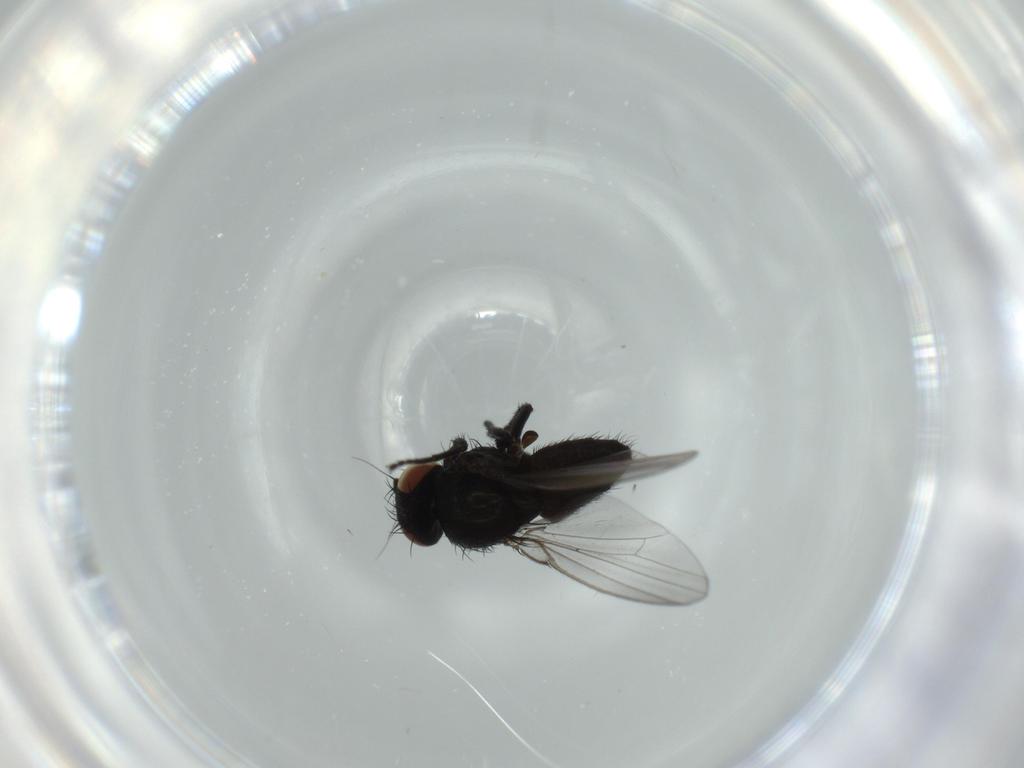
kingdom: Animalia
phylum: Arthropoda
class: Insecta
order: Diptera
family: Milichiidae
